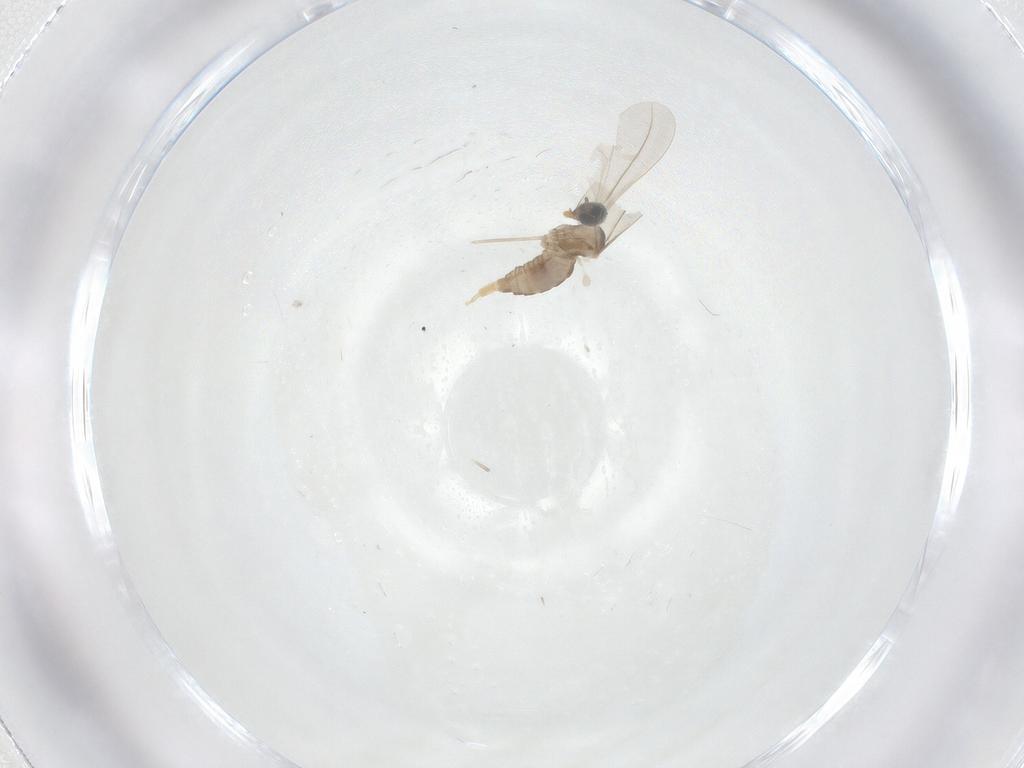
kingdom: Animalia
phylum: Arthropoda
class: Insecta
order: Diptera
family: Cecidomyiidae
